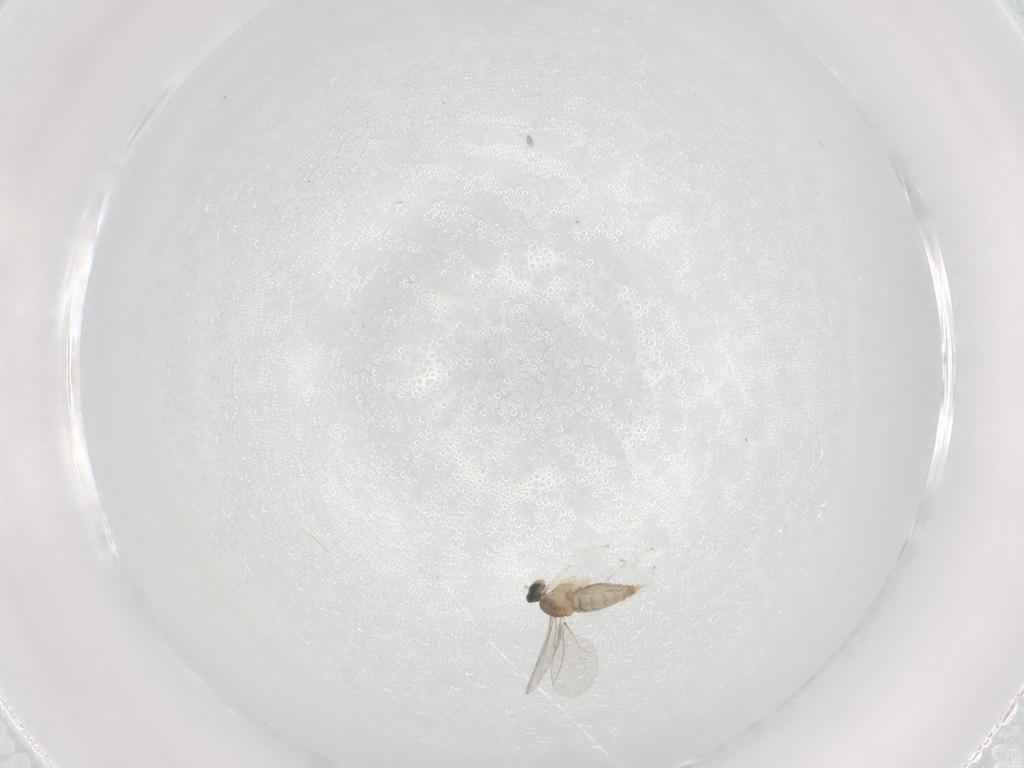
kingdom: Animalia
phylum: Arthropoda
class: Insecta
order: Diptera
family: Cecidomyiidae
